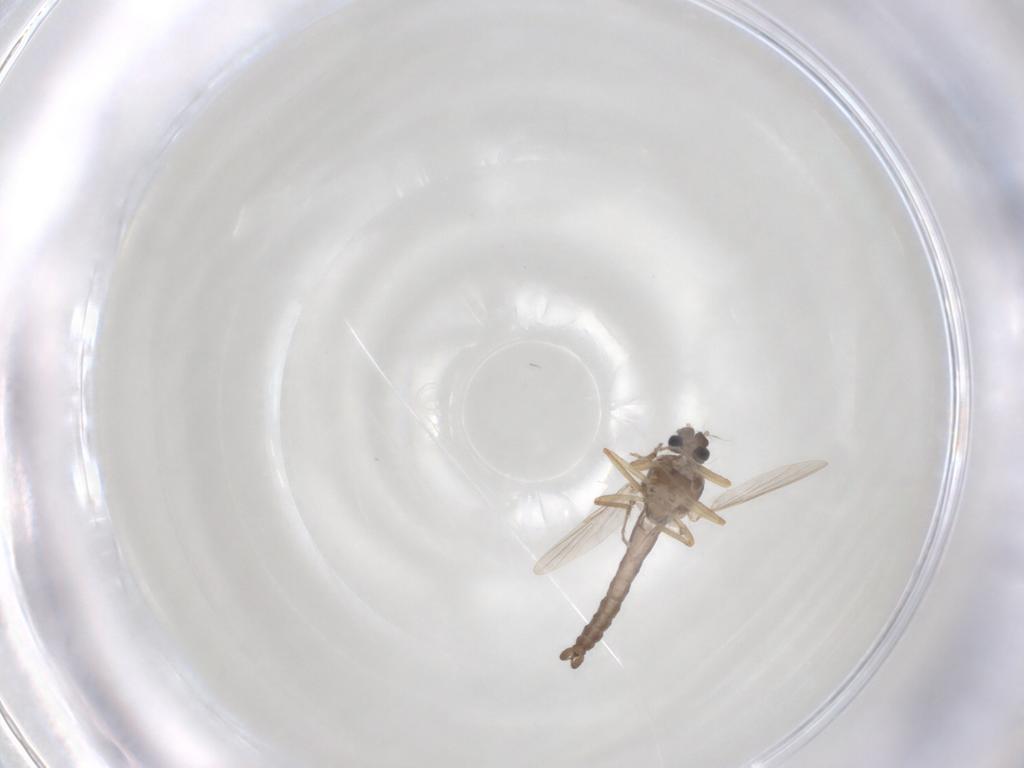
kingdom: Animalia
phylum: Arthropoda
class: Insecta
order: Diptera
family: Ceratopogonidae
